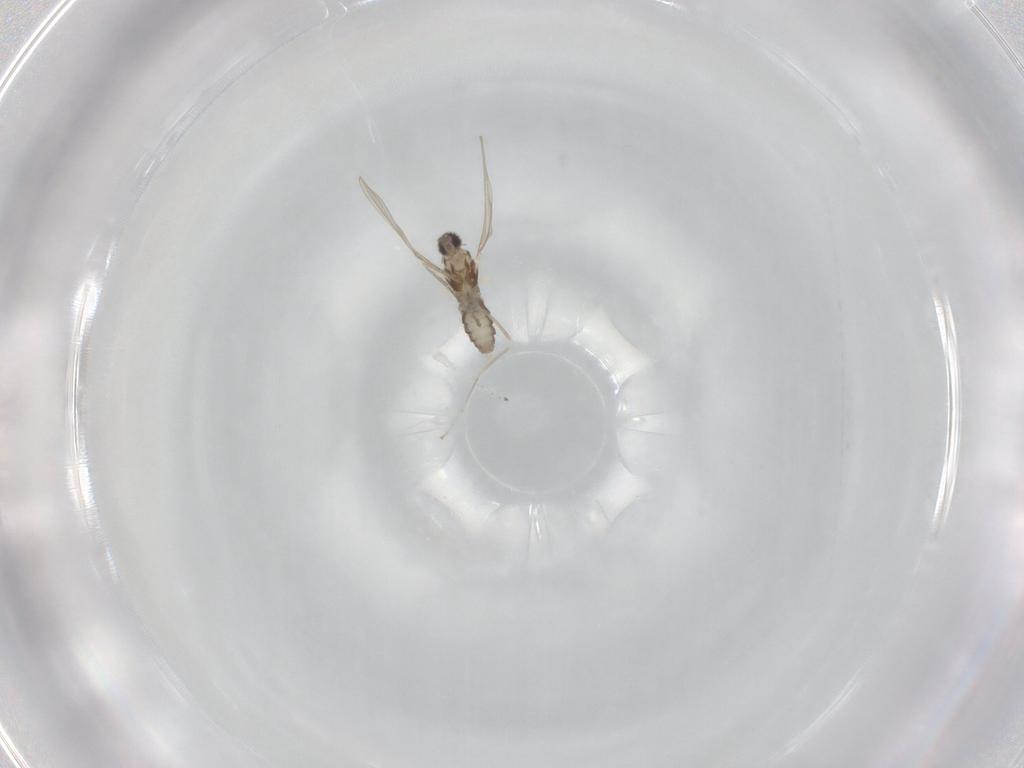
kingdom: Animalia
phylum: Arthropoda
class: Insecta
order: Diptera
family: Cecidomyiidae
